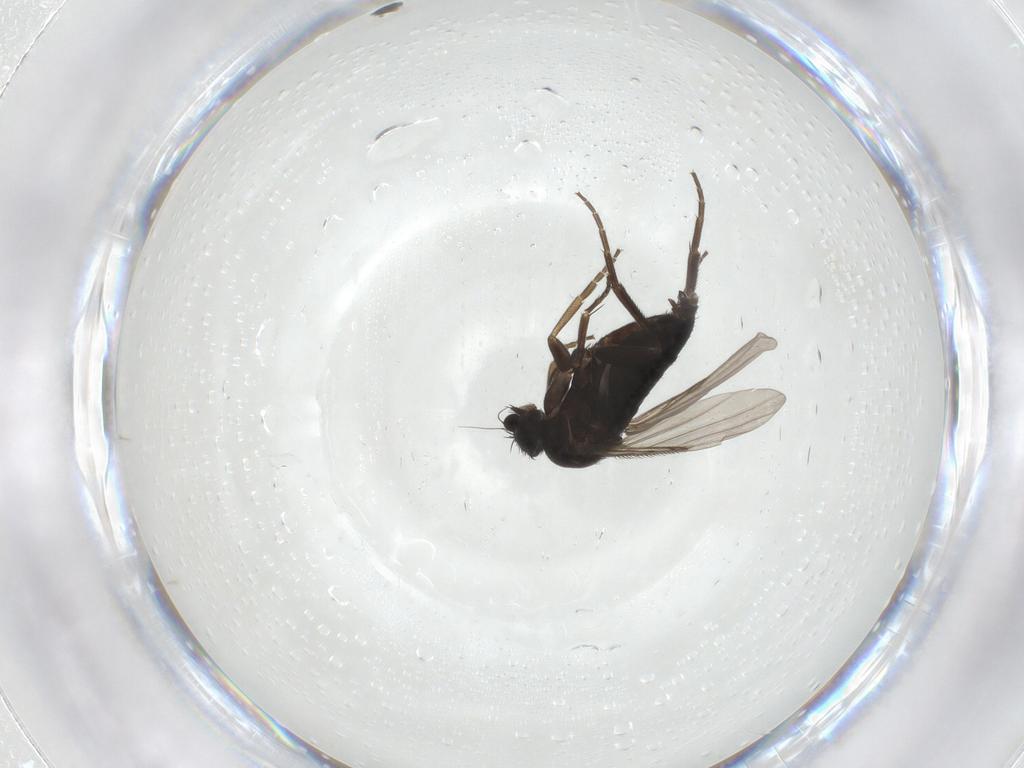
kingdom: Animalia
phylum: Arthropoda
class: Insecta
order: Diptera
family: Phoridae
